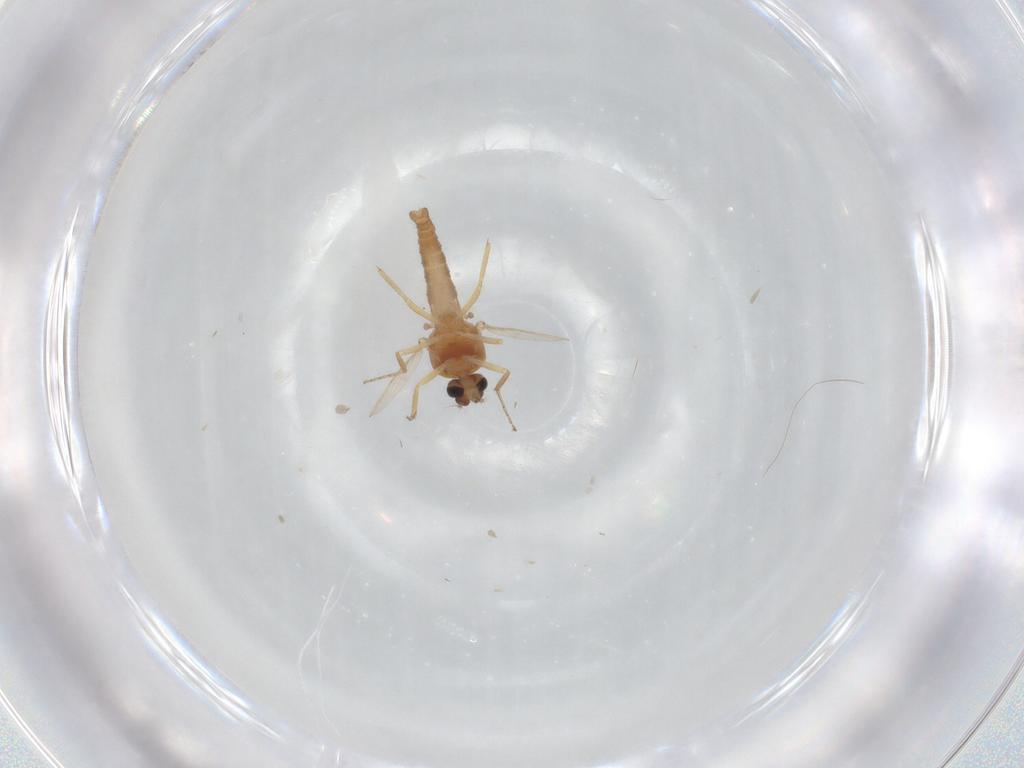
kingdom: Animalia
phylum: Arthropoda
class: Insecta
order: Diptera
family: Ceratopogonidae
